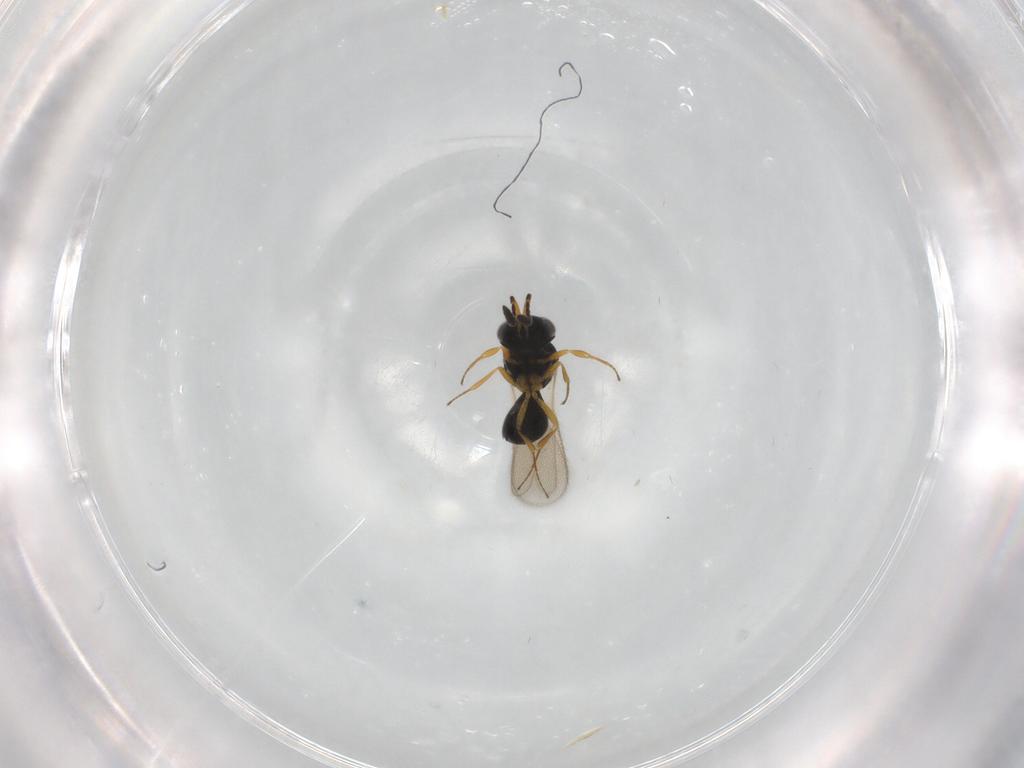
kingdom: Animalia
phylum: Arthropoda
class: Insecta
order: Hymenoptera
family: Scelionidae
